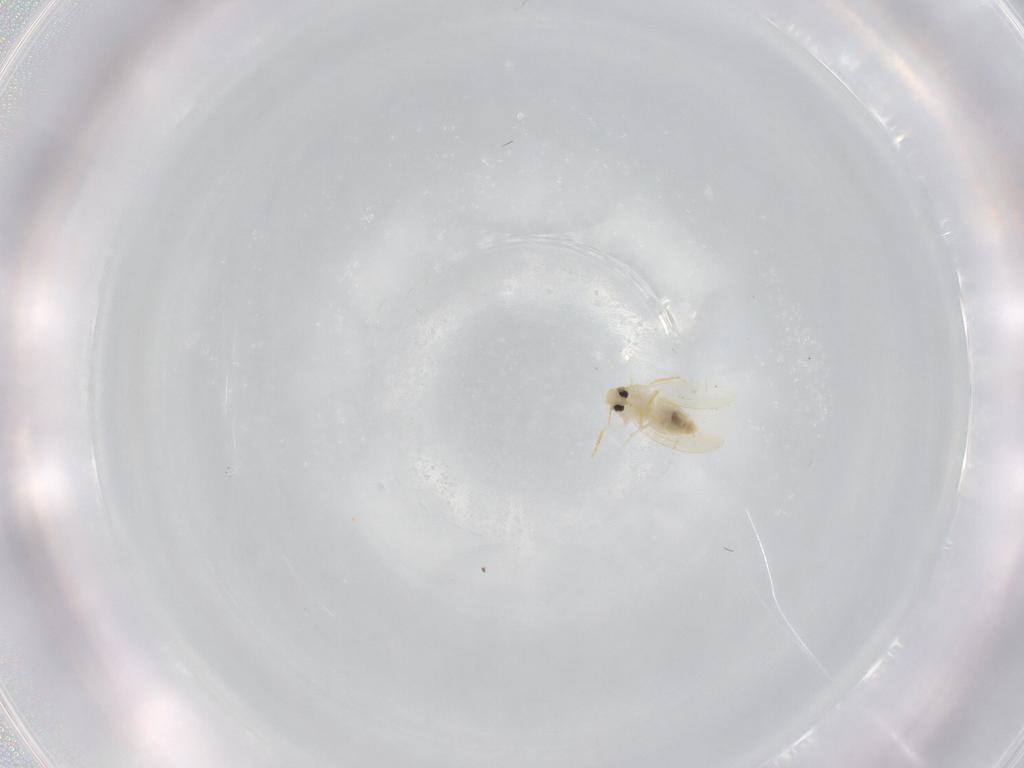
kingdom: Animalia
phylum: Arthropoda
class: Insecta
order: Hemiptera
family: Aleyrodidae
